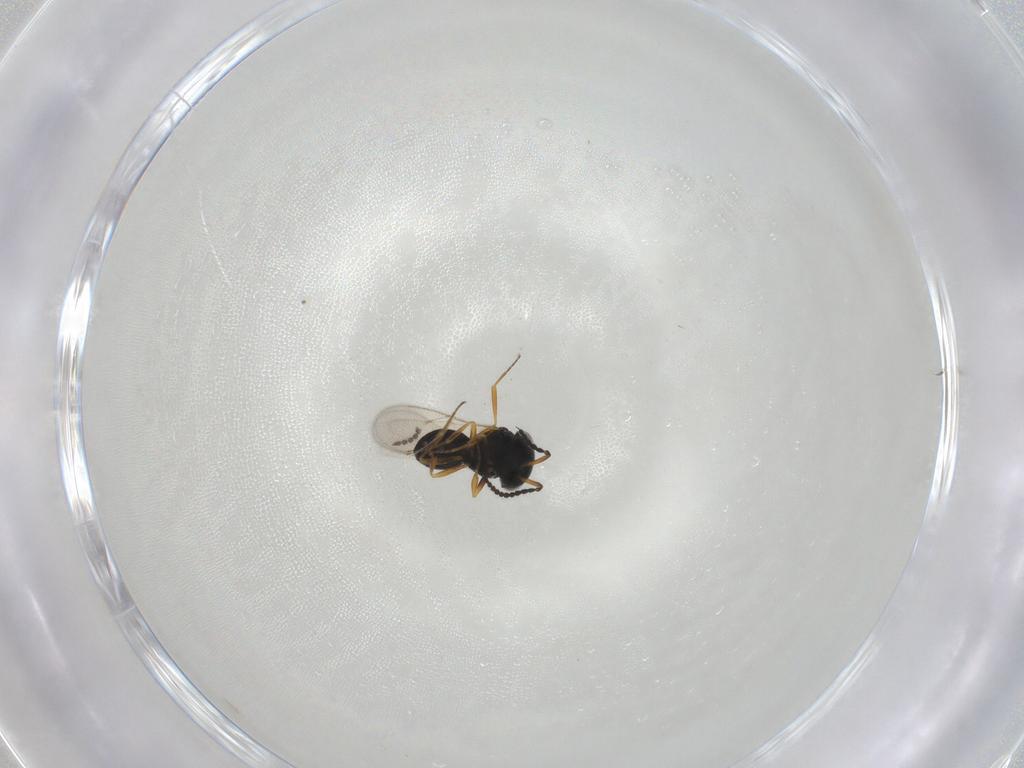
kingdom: Animalia
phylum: Arthropoda
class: Insecta
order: Hymenoptera
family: Scelionidae
